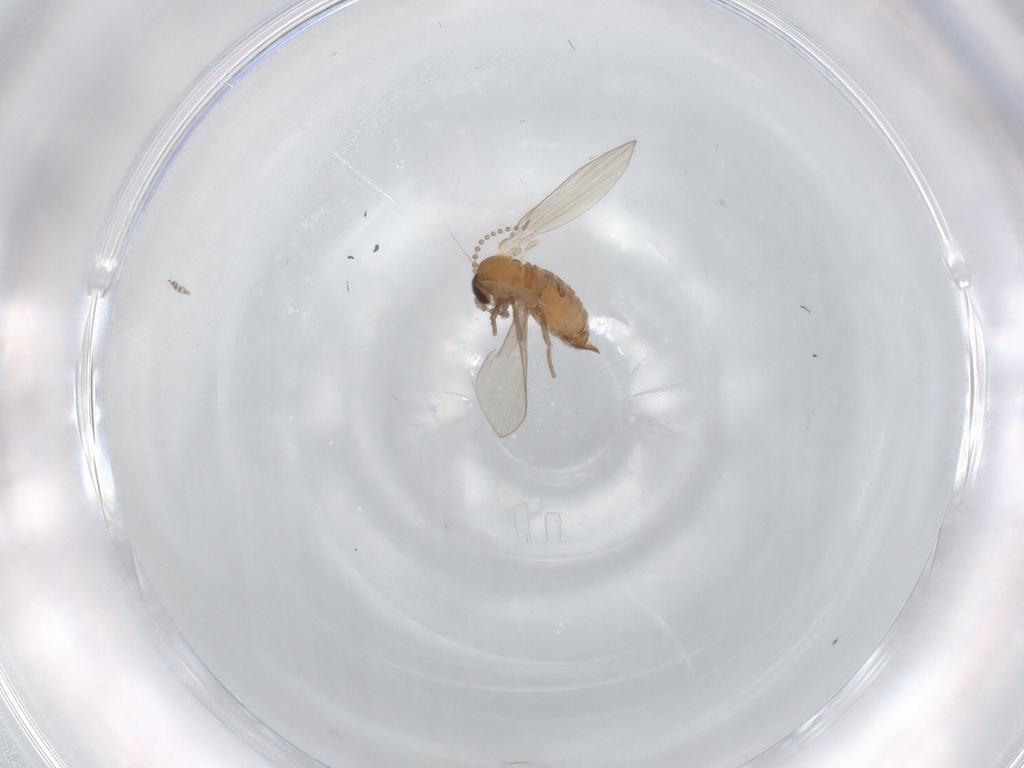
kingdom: Animalia
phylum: Arthropoda
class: Insecta
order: Diptera
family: Psychodidae
